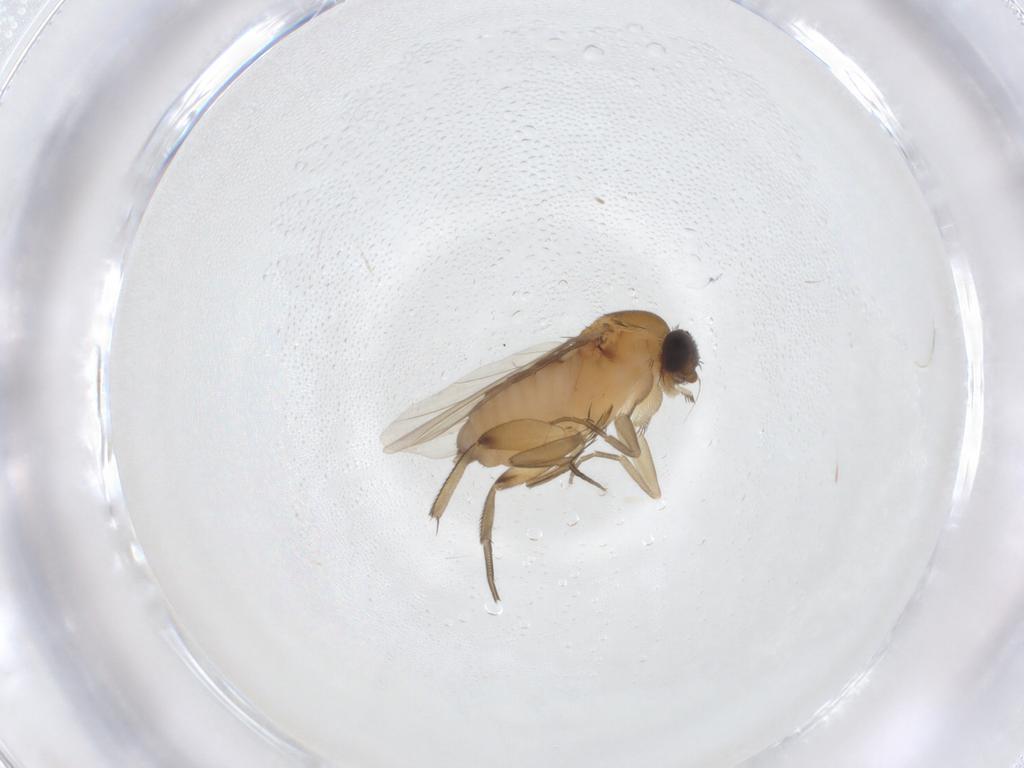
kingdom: Animalia
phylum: Arthropoda
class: Insecta
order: Diptera
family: Phoridae
